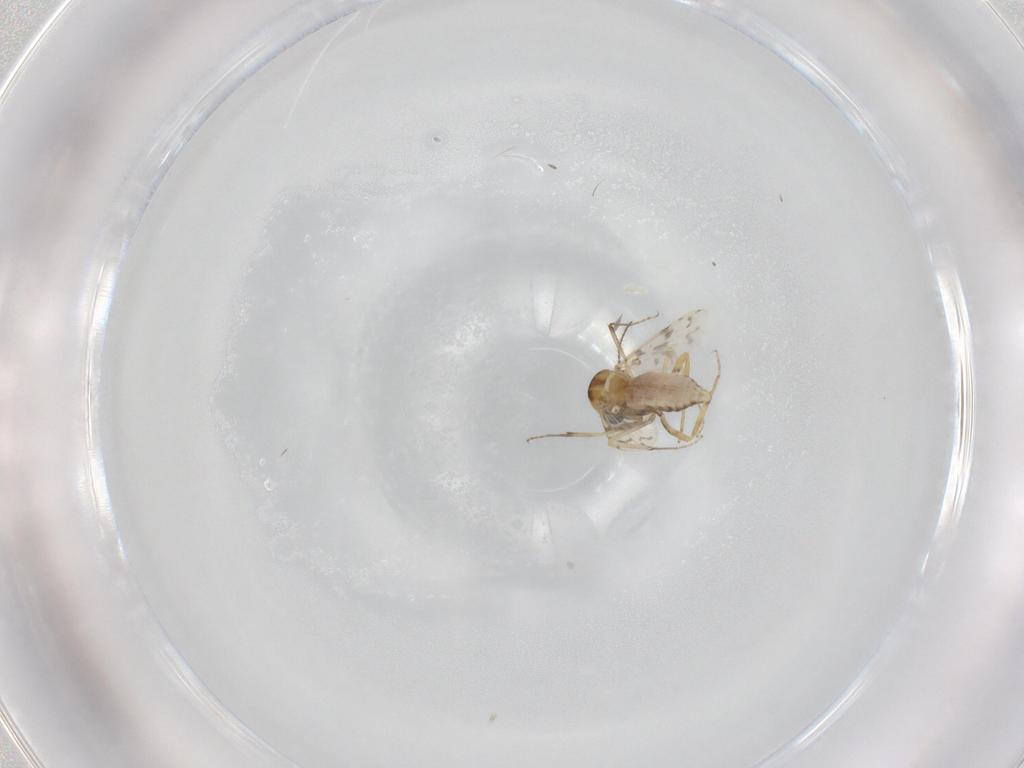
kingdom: Animalia
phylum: Arthropoda
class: Insecta
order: Diptera
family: Ceratopogonidae
